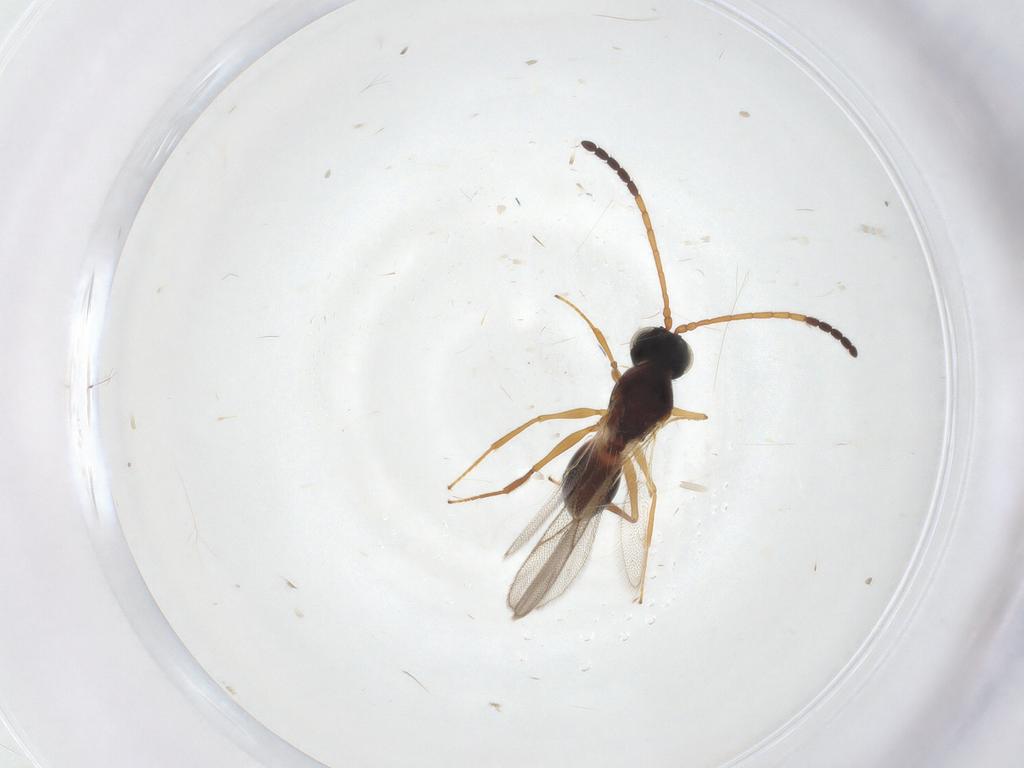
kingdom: Animalia
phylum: Arthropoda
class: Insecta
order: Hymenoptera
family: Figitidae
